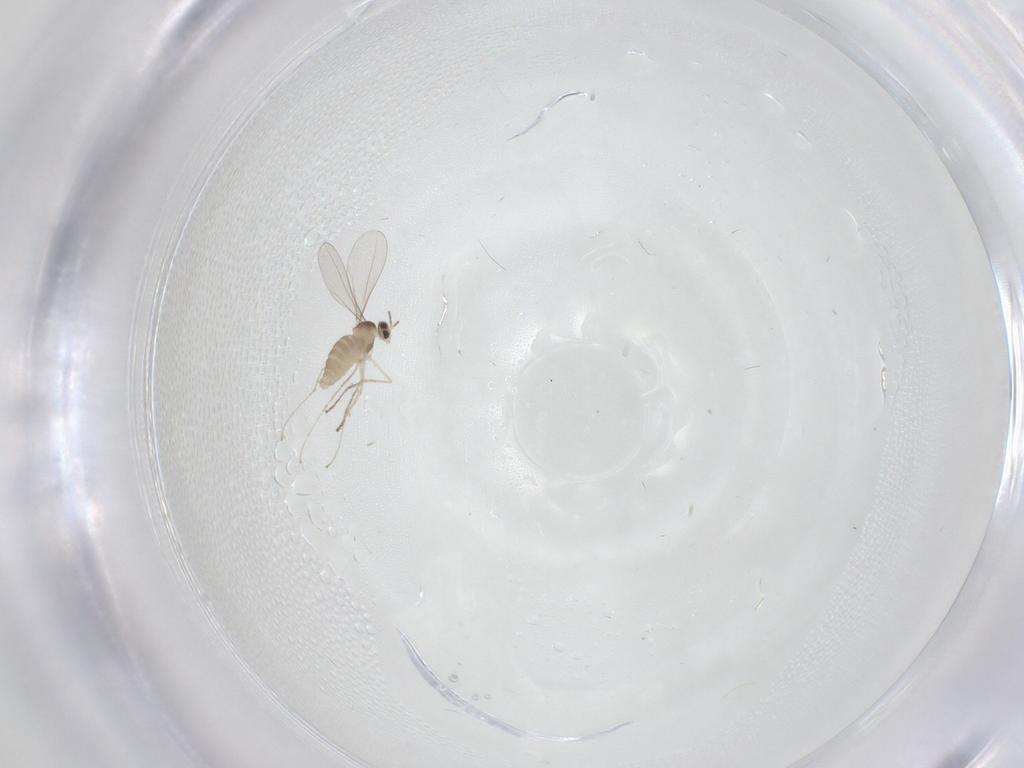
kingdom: Animalia
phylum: Arthropoda
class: Insecta
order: Diptera
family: Cecidomyiidae
